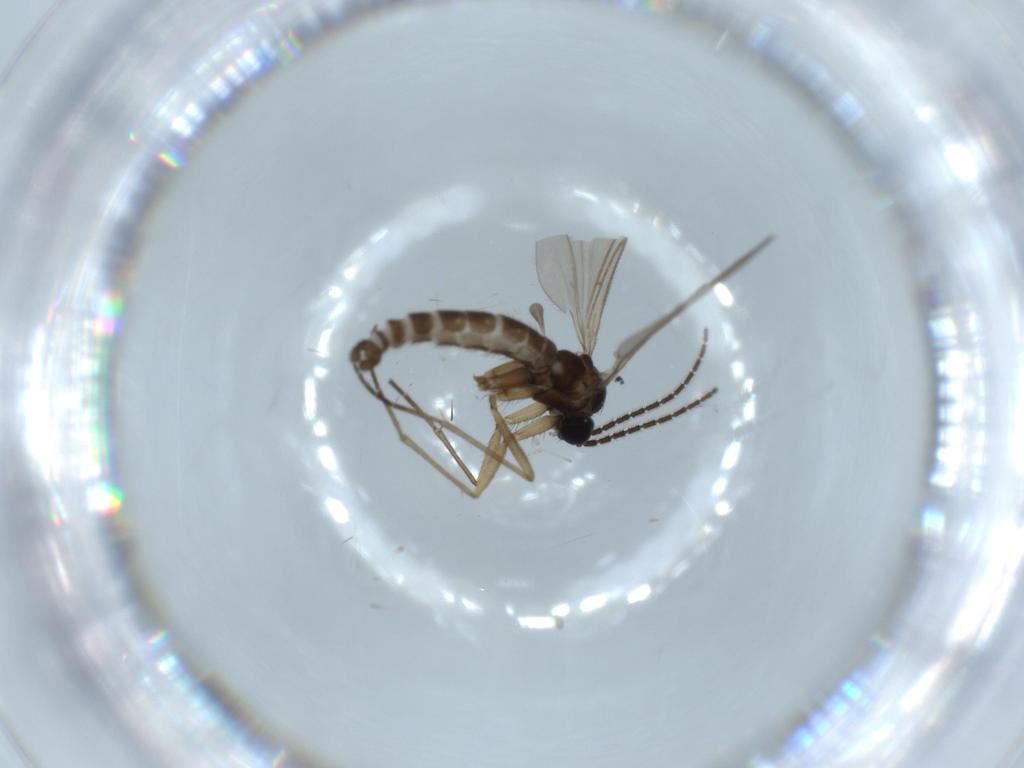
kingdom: Animalia
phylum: Arthropoda
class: Insecta
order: Diptera
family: Sciaridae
